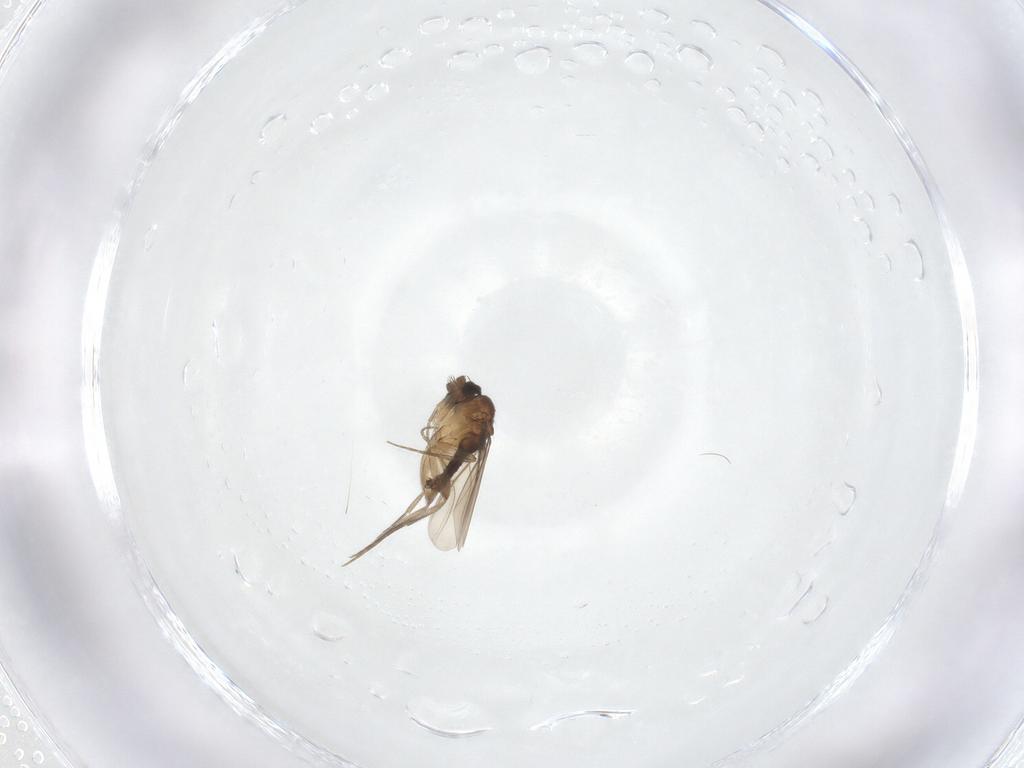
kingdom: Animalia
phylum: Arthropoda
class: Insecta
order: Diptera
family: Phoridae
